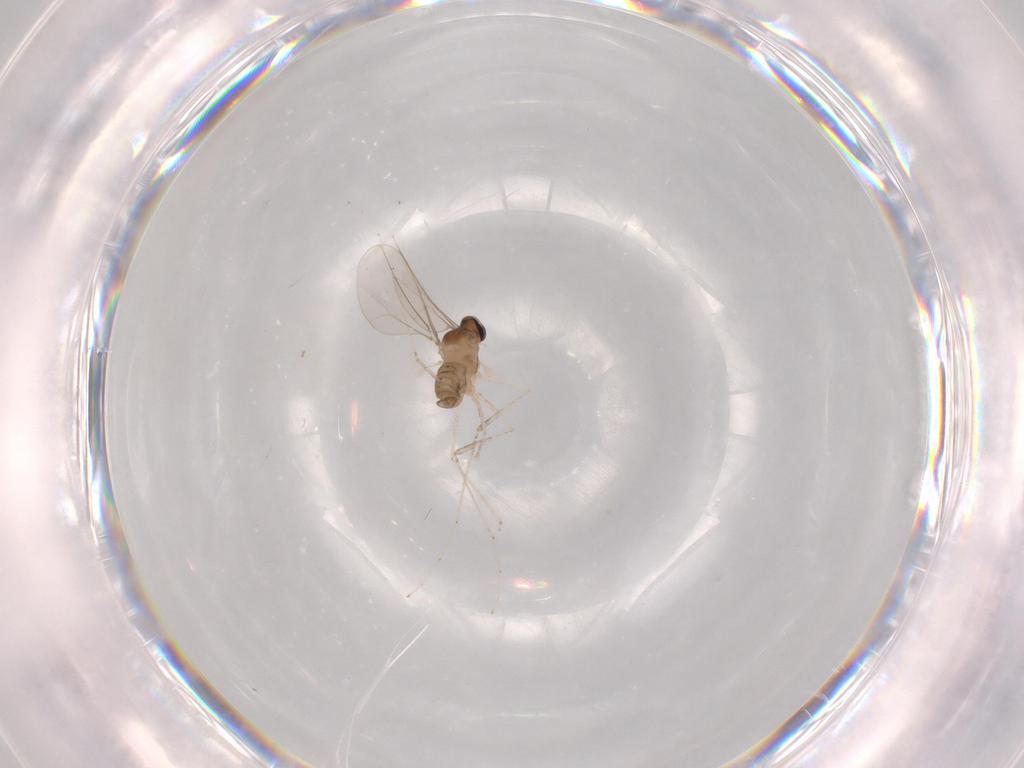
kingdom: Animalia
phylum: Arthropoda
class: Insecta
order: Diptera
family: Cecidomyiidae
